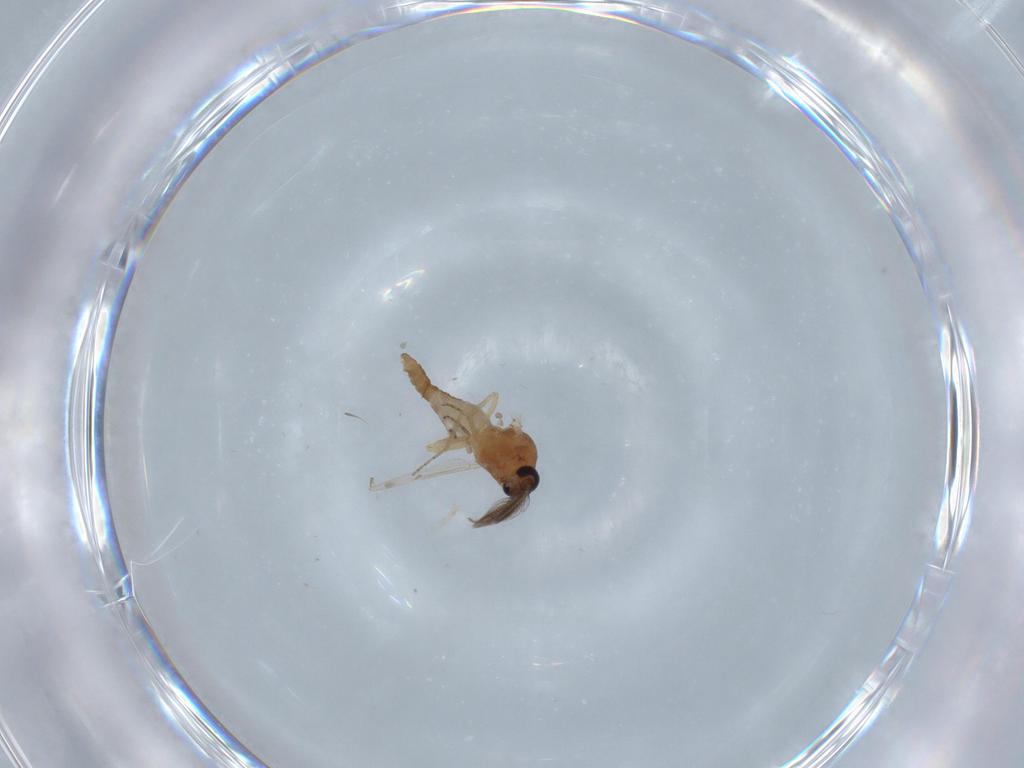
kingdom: Animalia
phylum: Arthropoda
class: Insecta
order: Diptera
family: Ceratopogonidae
